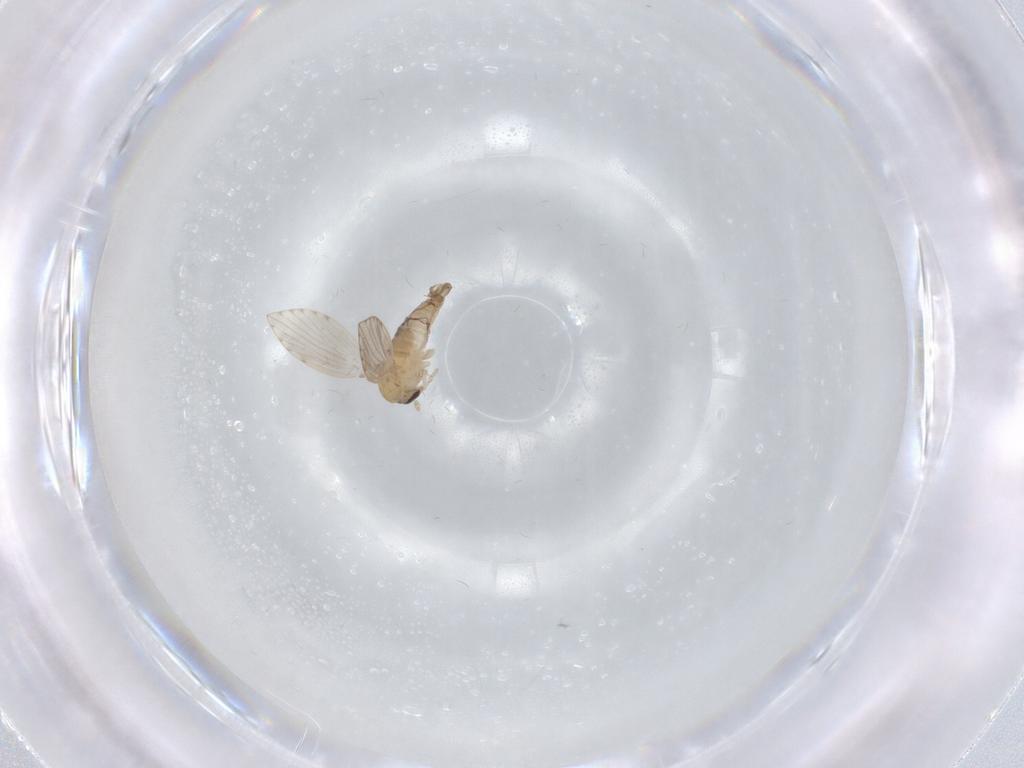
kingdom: Animalia
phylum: Arthropoda
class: Insecta
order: Diptera
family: Psychodidae
